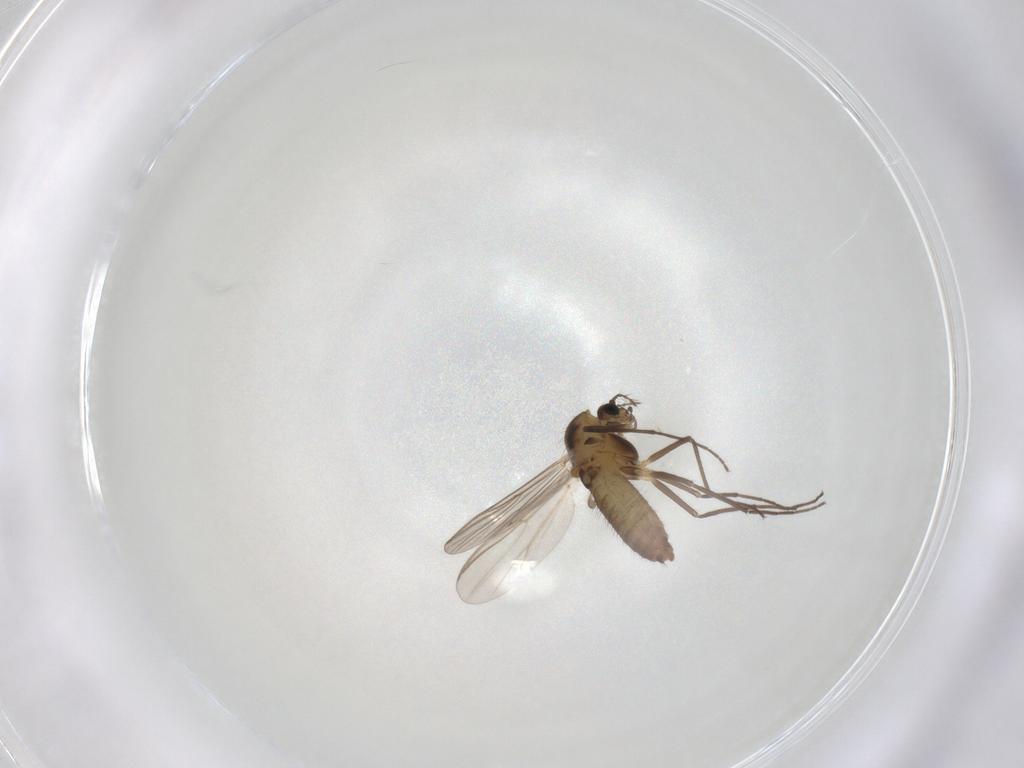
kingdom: Animalia
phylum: Arthropoda
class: Insecta
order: Diptera
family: Chironomidae
